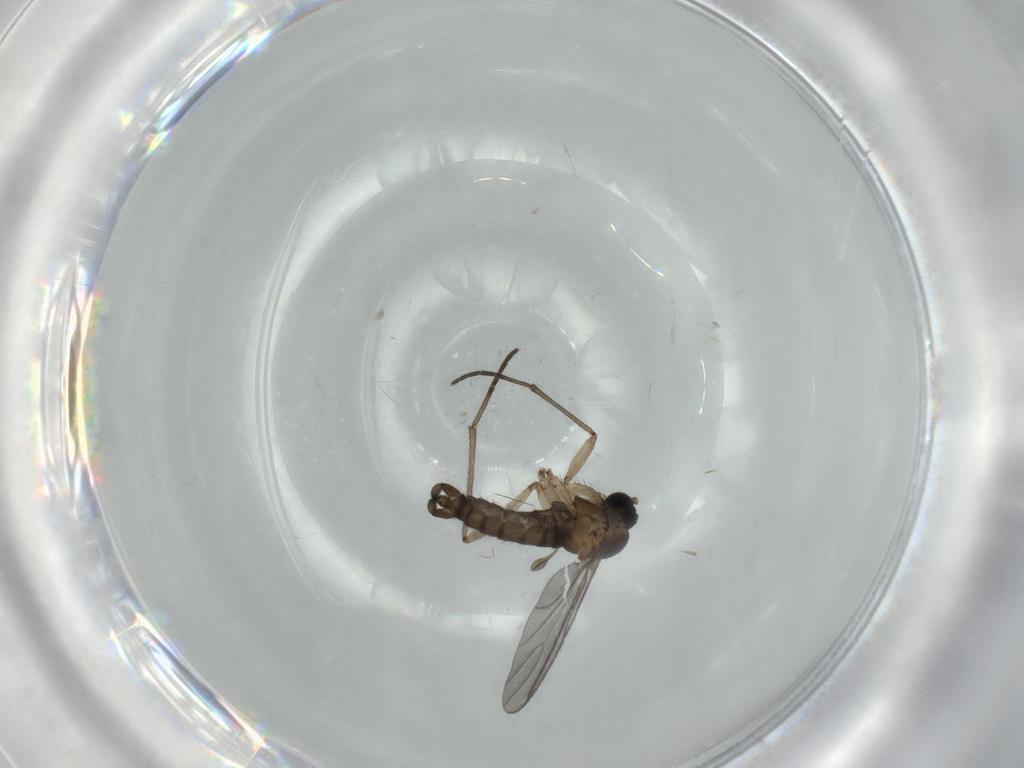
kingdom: Animalia
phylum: Arthropoda
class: Insecta
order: Diptera
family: Sciaridae
